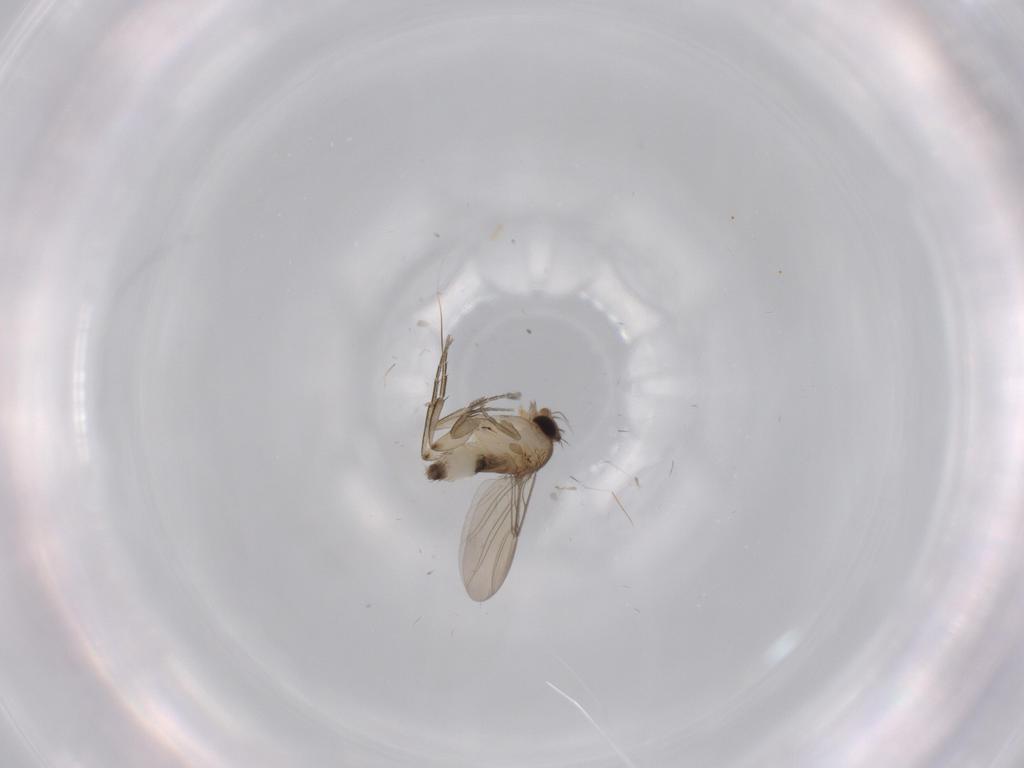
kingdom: Animalia
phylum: Arthropoda
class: Insecta
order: Diptera
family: Phoridae
